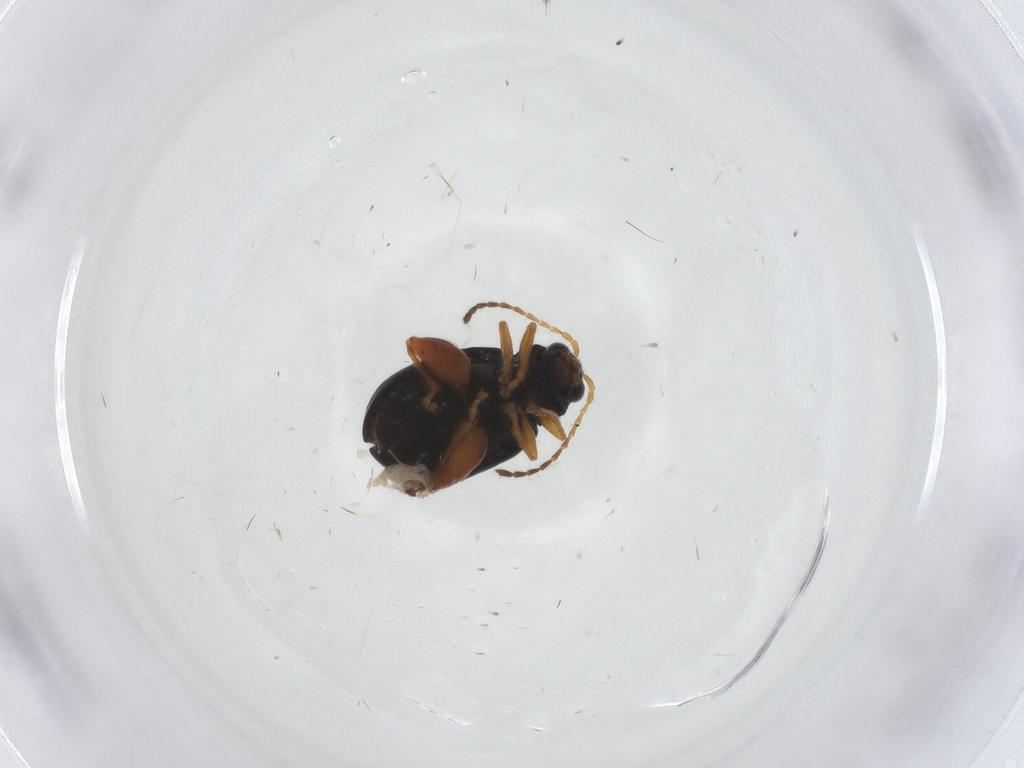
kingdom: Animalia
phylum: Arthropoda
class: Insecta
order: Coleoptera
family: Chrysomelidae
